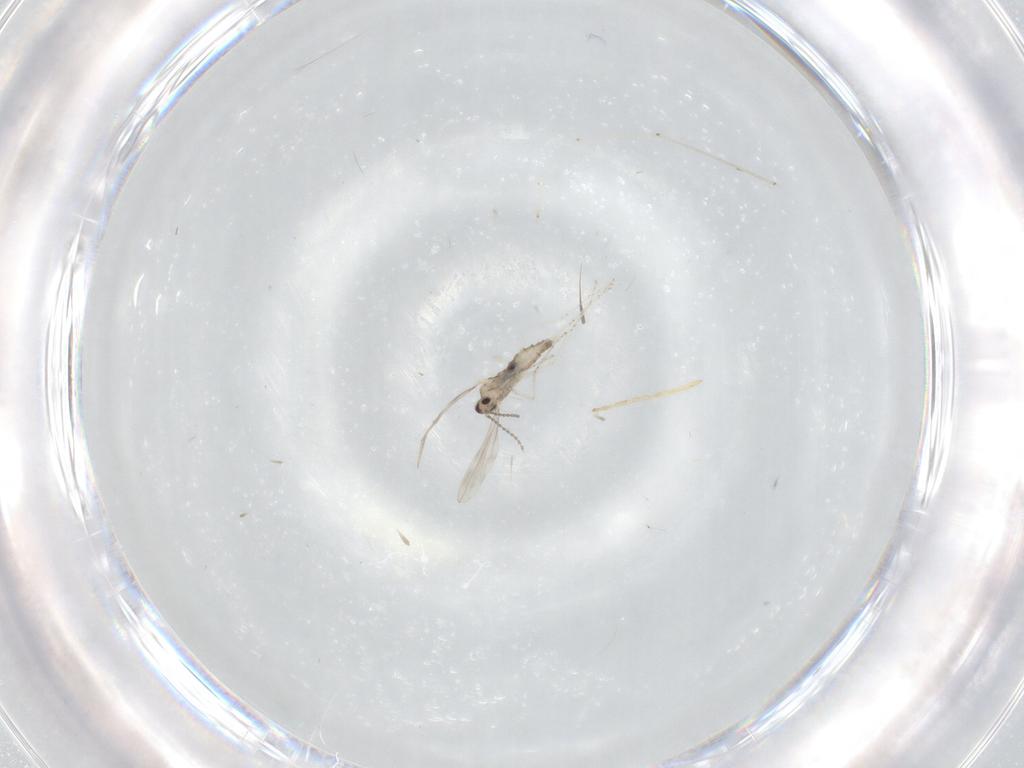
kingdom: Animalia
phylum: Arthropoda
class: Insecta
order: Diptera
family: Cecidomyiidae
